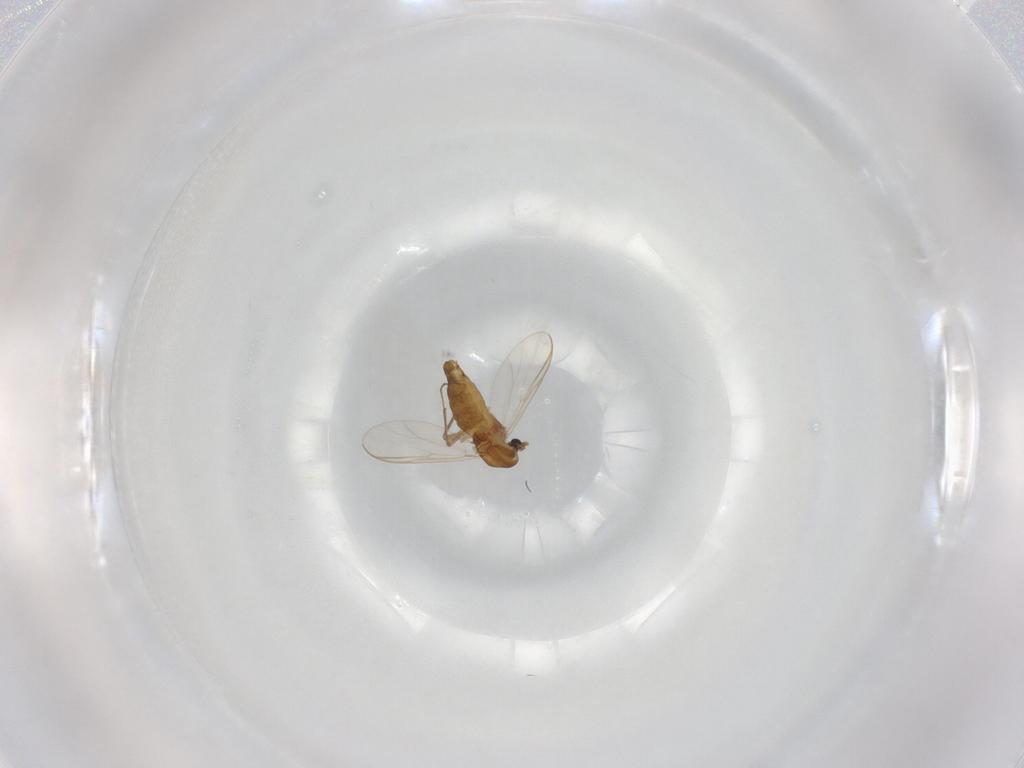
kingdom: Animalia
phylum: Arthropoda
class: Insecta
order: Diptera
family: Chironomidae
